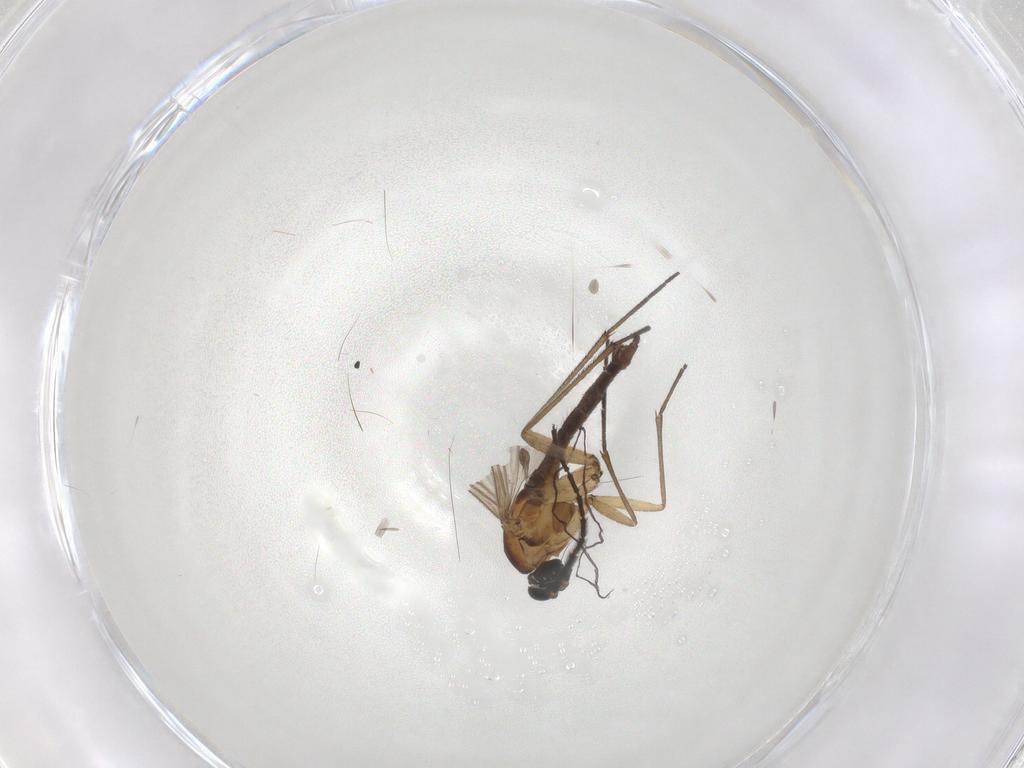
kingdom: Animalia
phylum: Arthropoda
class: Insecta
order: Diptera
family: Sciaridae
